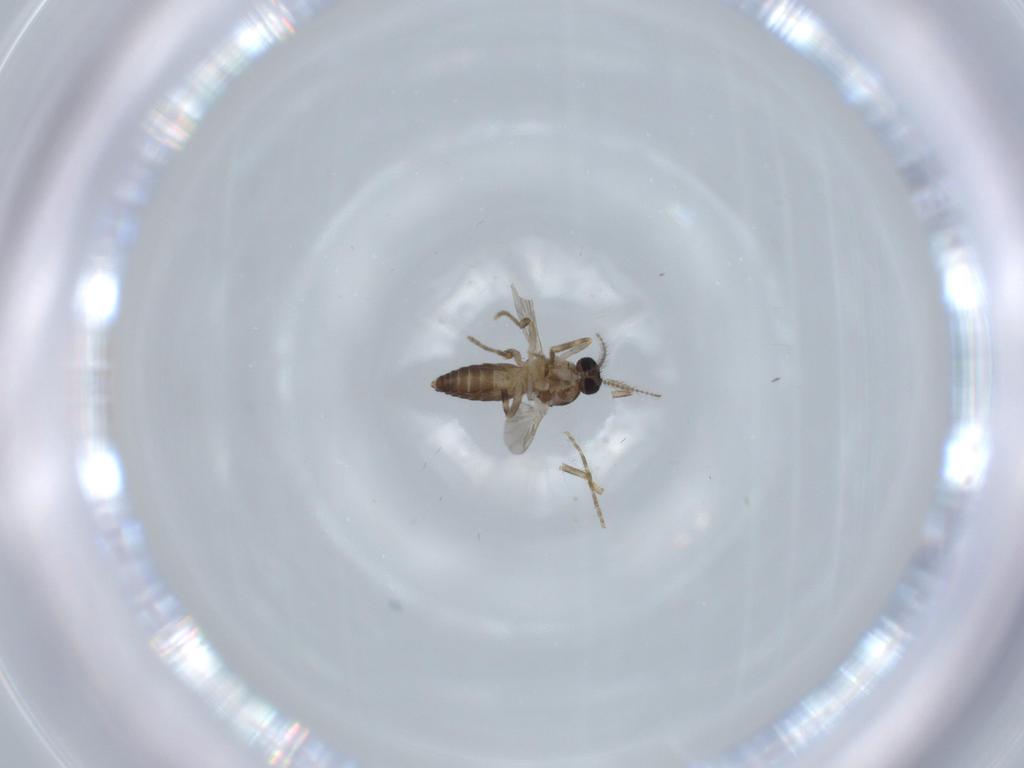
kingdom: Animalia
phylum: Arthropoda
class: Insecta
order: Diptera
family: Ceratopogonidae
